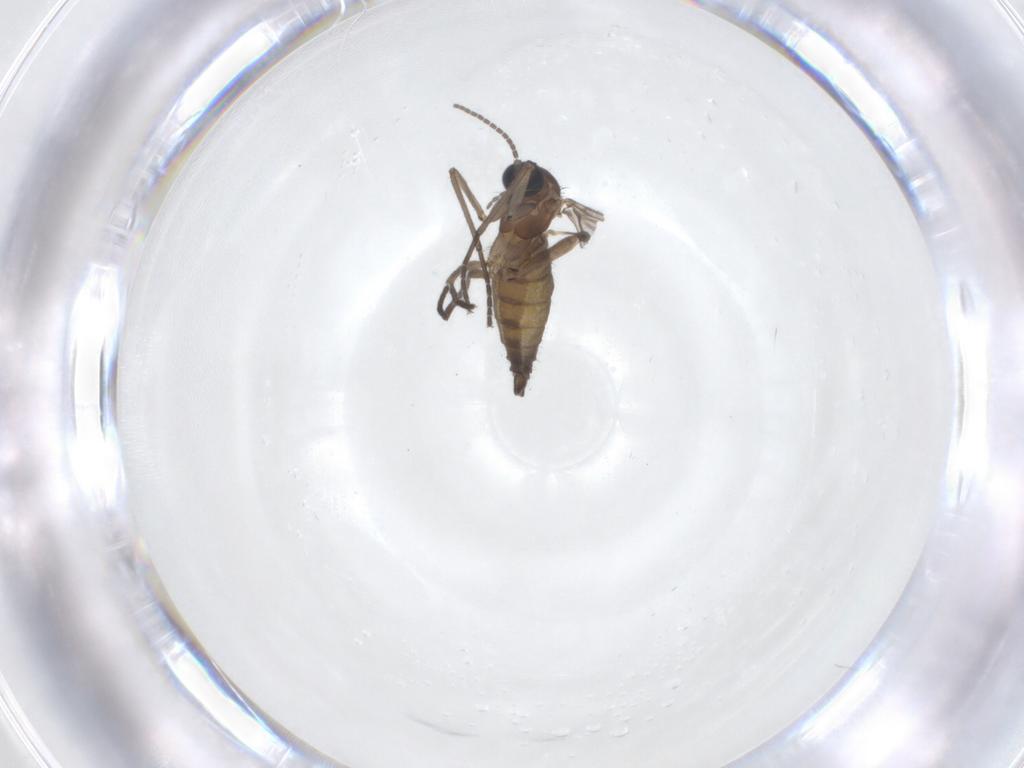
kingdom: Animalia
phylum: Arthropoda
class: Insecta
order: Diptera
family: Sciaridae
